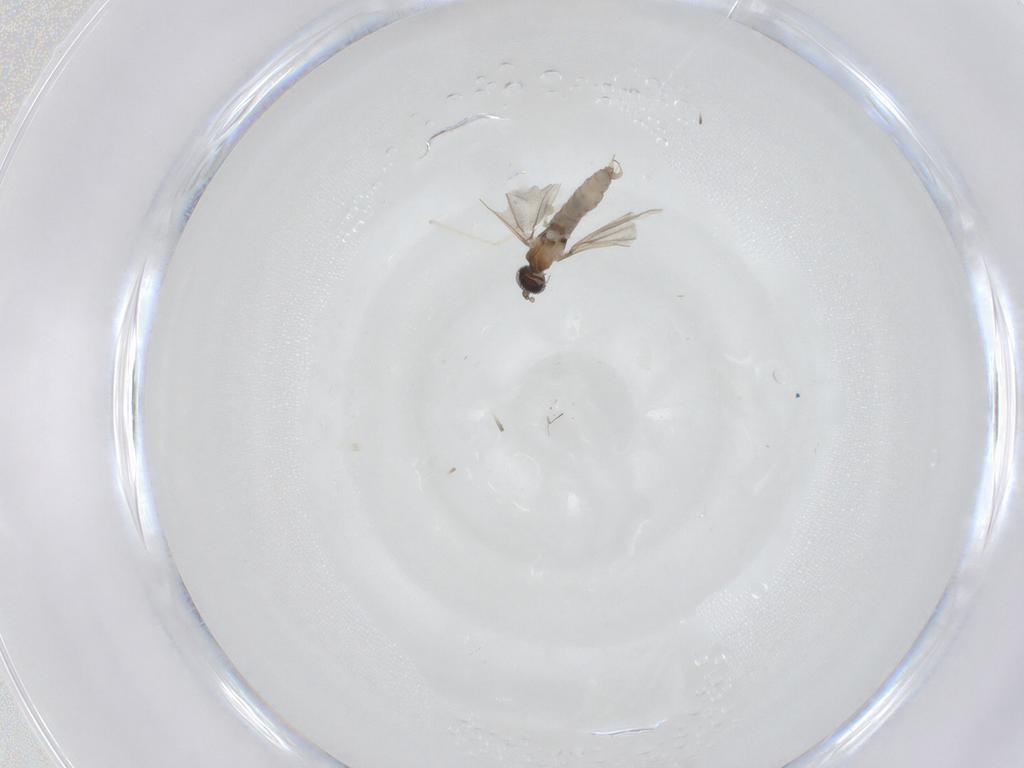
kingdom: Animalia
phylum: Arthropoda
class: Insecta
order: Diptera
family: Cecidomyiidae
